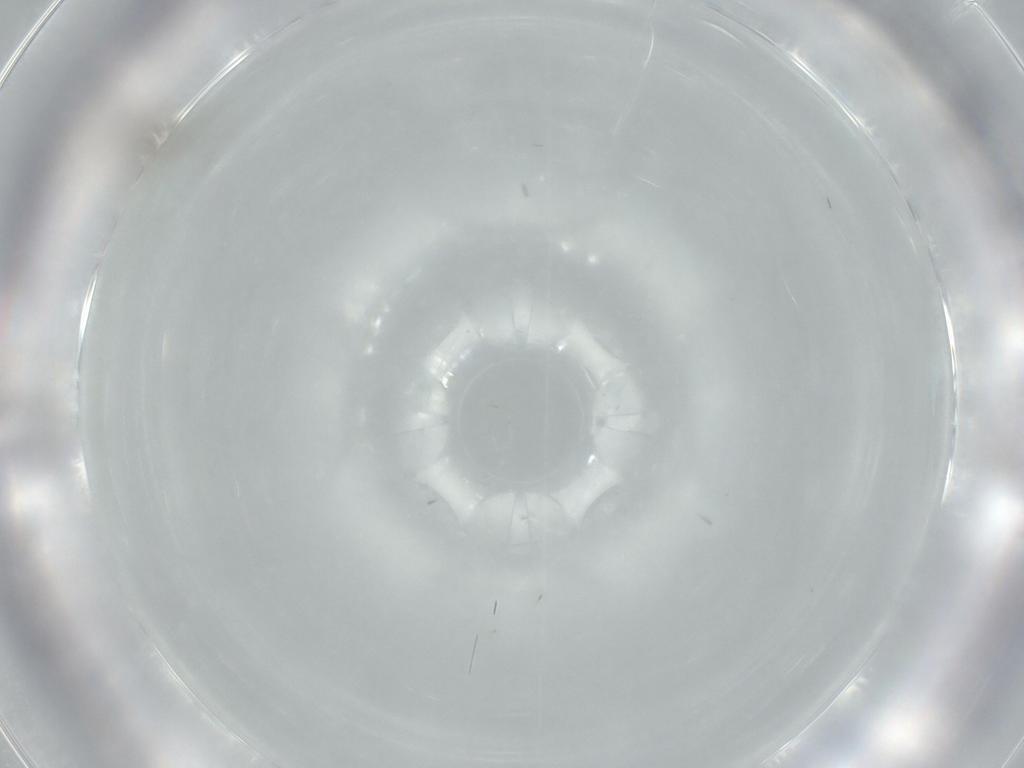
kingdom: Animalia
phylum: Arthropoda
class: Insecta
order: Diptera
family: Cecidomyiidae
